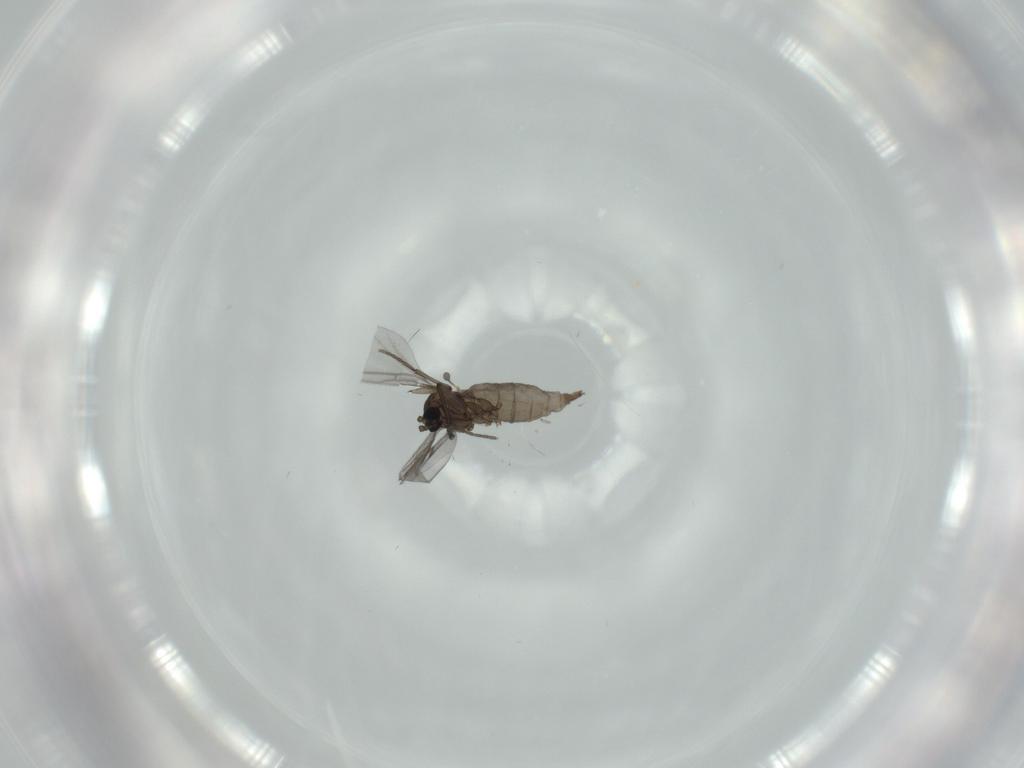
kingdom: Animalia
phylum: Arthropoda
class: Insecta
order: Diptera
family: Sciaridae
